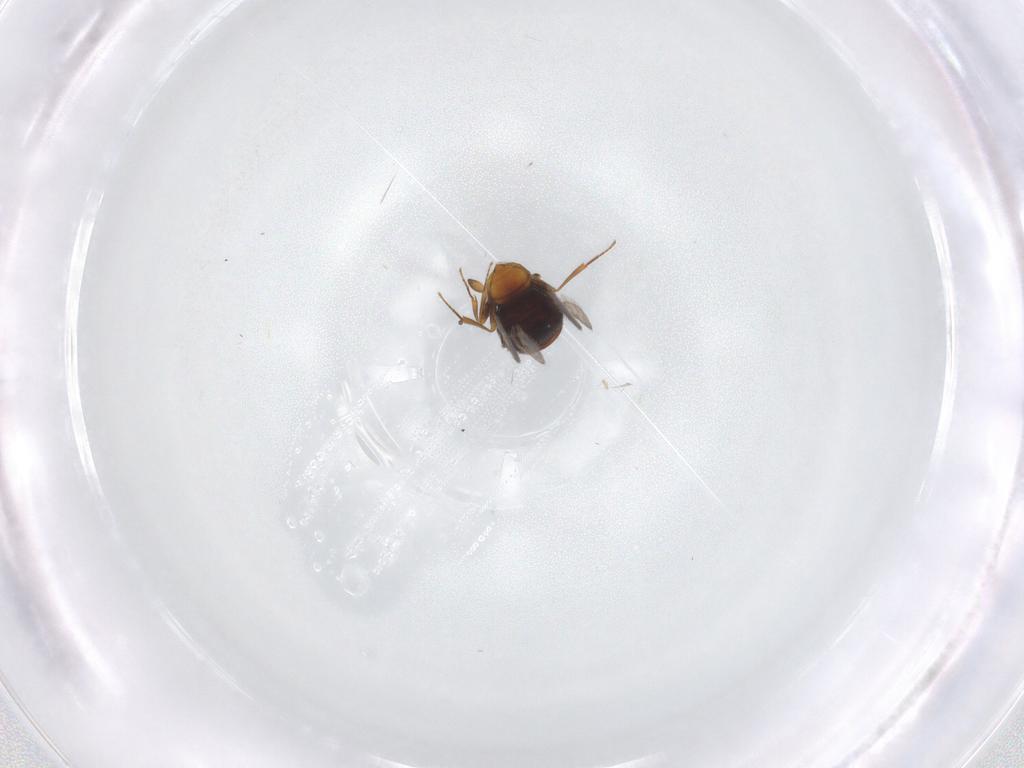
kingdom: Animalia
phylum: Arthropoda
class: Insecta
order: Hymenoptera
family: Scelionidae
